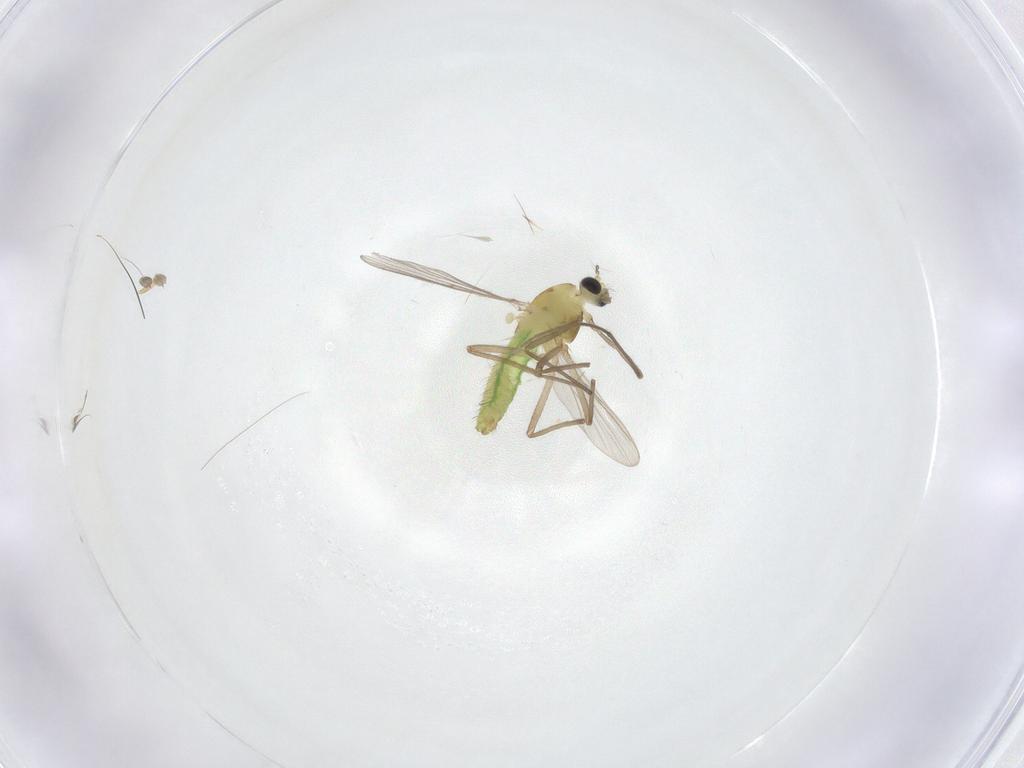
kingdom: Animalia
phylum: Arthropoda
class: Insecta
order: Diptera
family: Chironomidae
